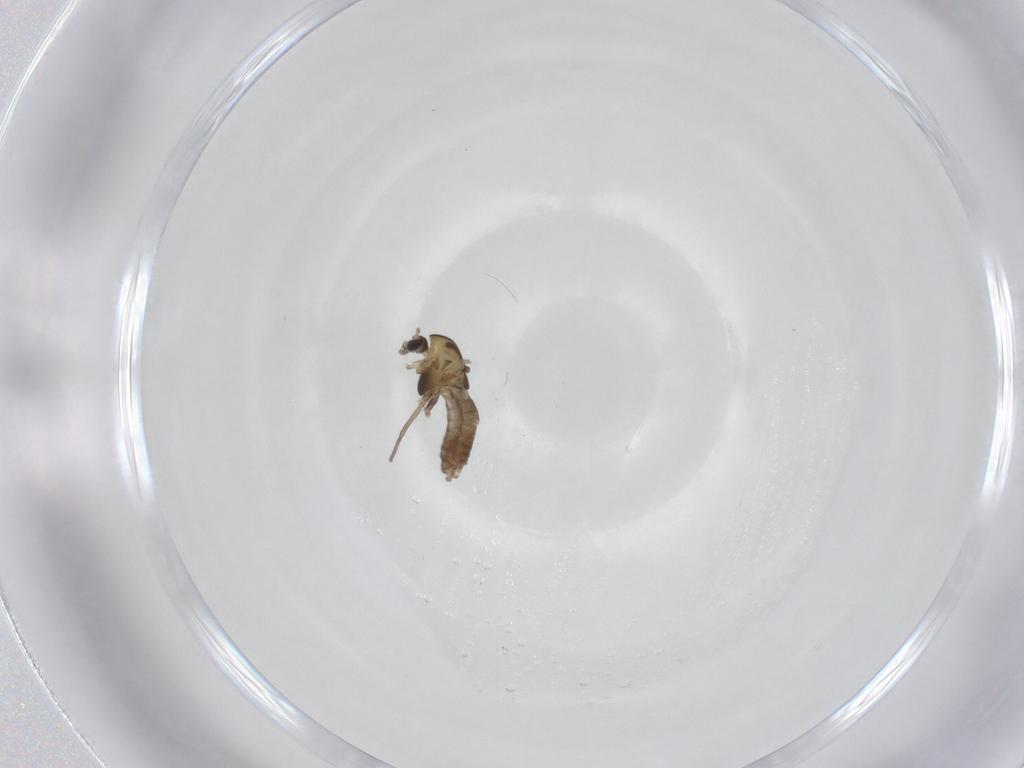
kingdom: Animalia
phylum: Arthropoda
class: Insecta
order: Diptera
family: Chironomidae
